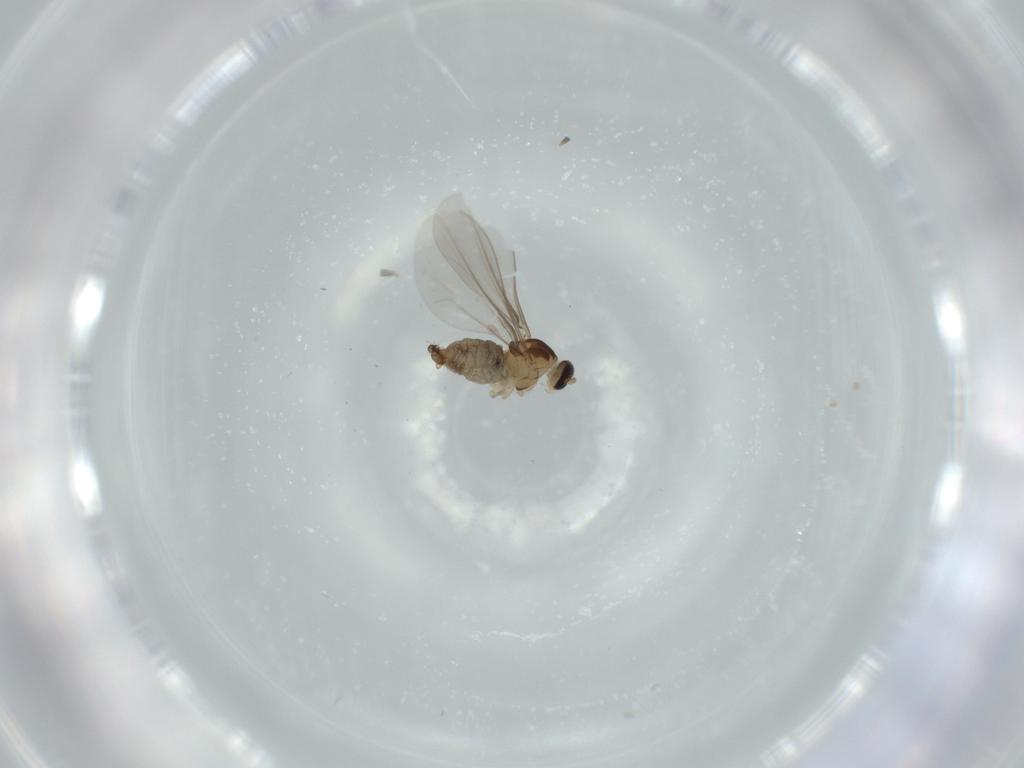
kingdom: Animalia
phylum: Arthropoda
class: Insecta
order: Diptera
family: Cecidomyiidae
